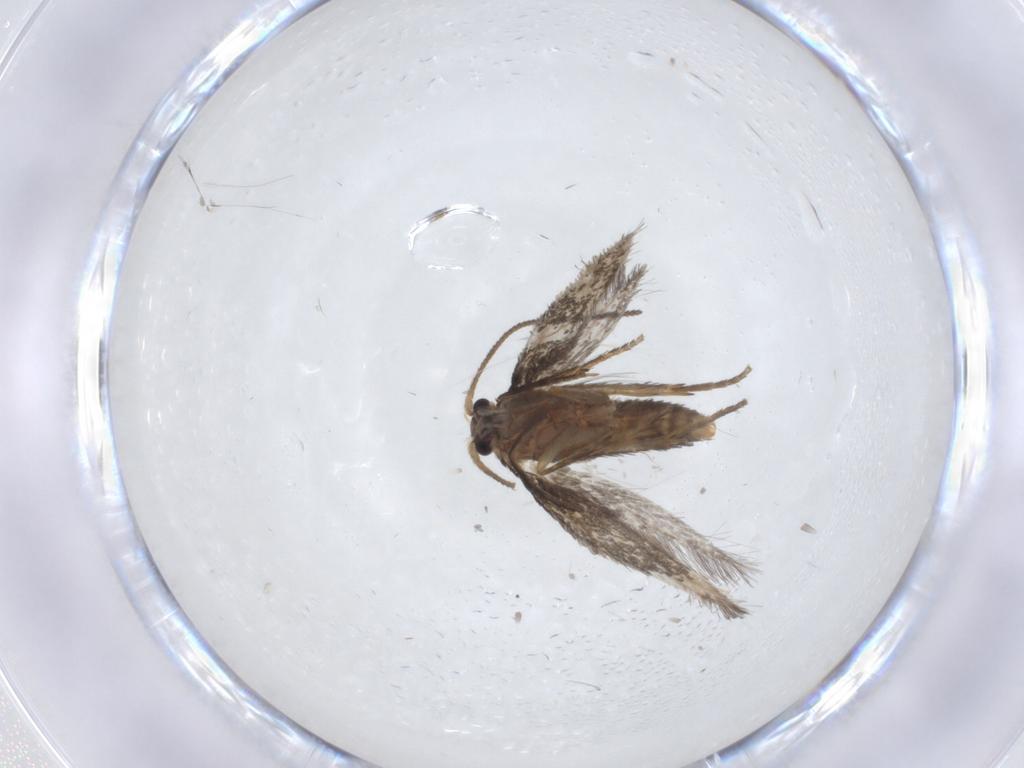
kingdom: Animalia
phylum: Arthropoda
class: Insecta
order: Lepidoptera
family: Nepticulidae
